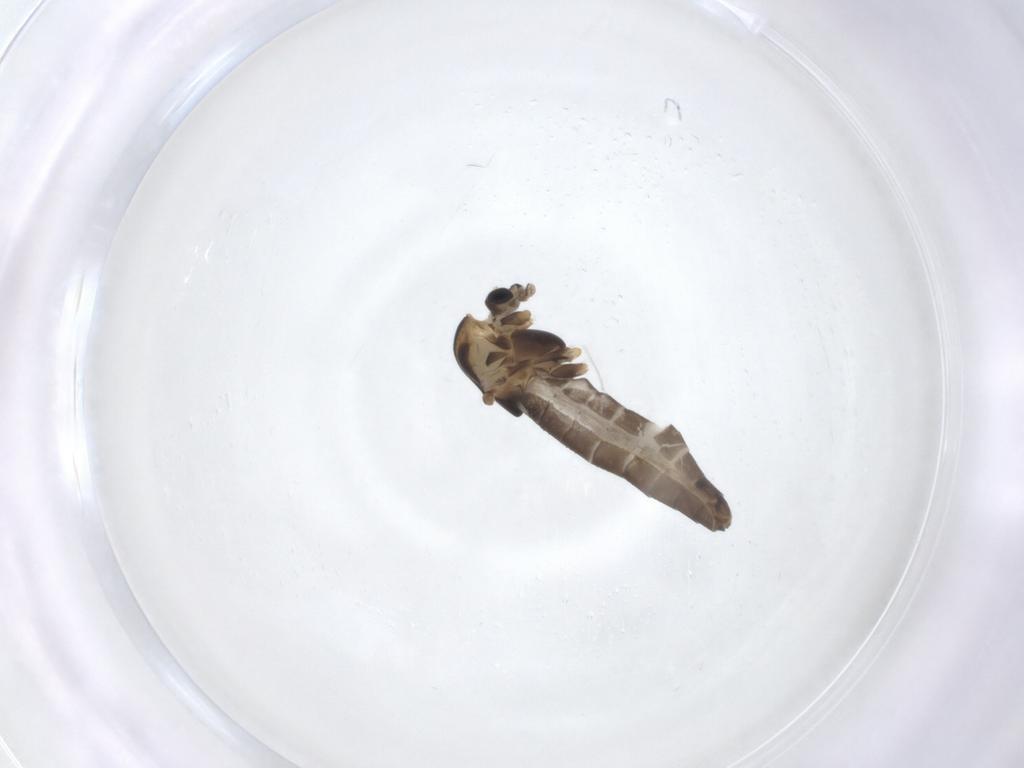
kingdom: Animalia
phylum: Arthropoda
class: Insecta
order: Diptera
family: Chironomidae
